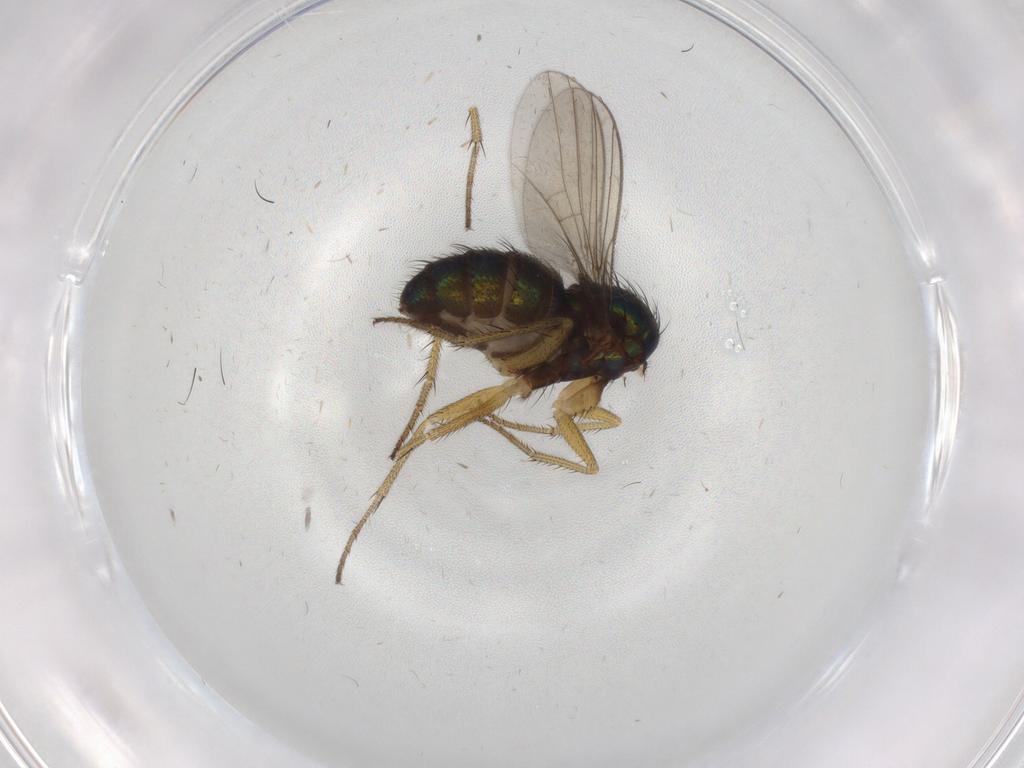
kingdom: Animalia
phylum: Arthropoda
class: Insecta
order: Diptera
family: Dolichopodidae
